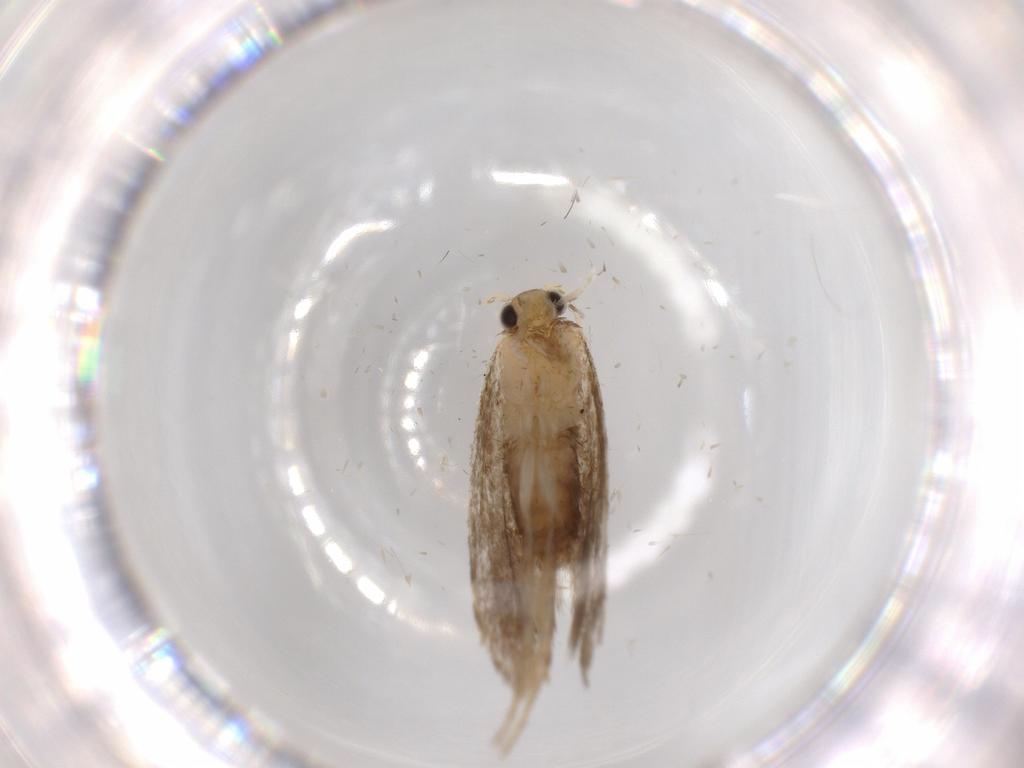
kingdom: Animalia
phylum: Arthropoda
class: Insecta
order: Lepidoptera
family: Tineidae
